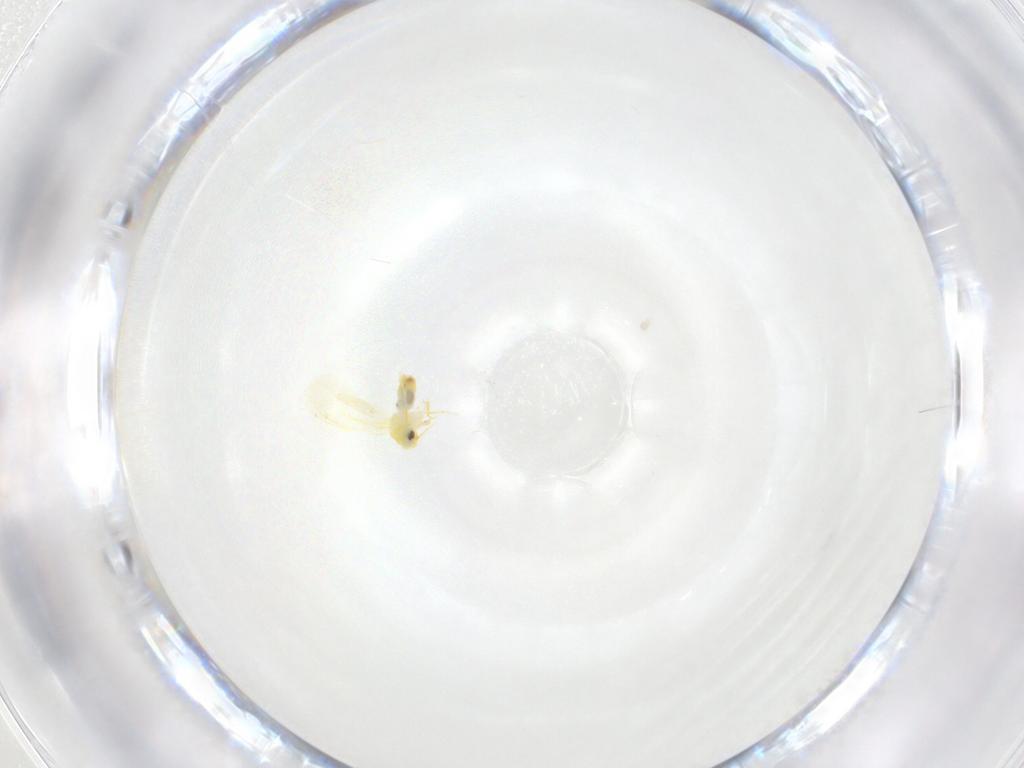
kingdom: Animalia
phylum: Arthropoda
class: Insecta
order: Hemiptera
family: Aleyrodidae
